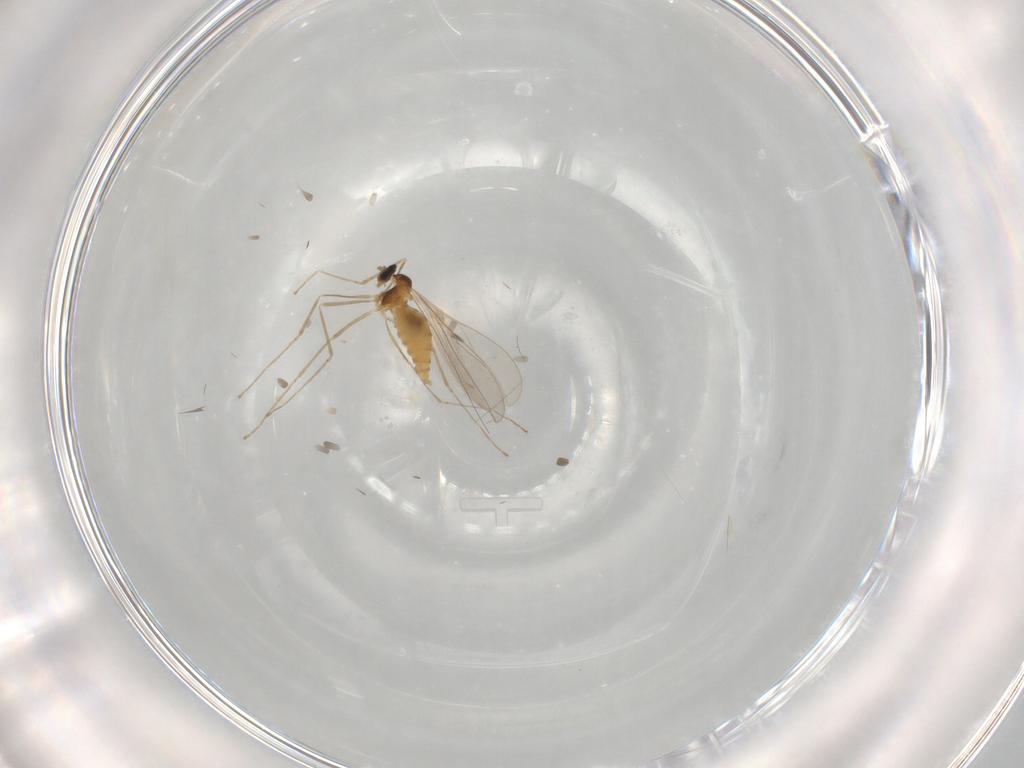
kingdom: Animalia
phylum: Arthropoda
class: Insecta
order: Diptera
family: Cecidomyiidae
